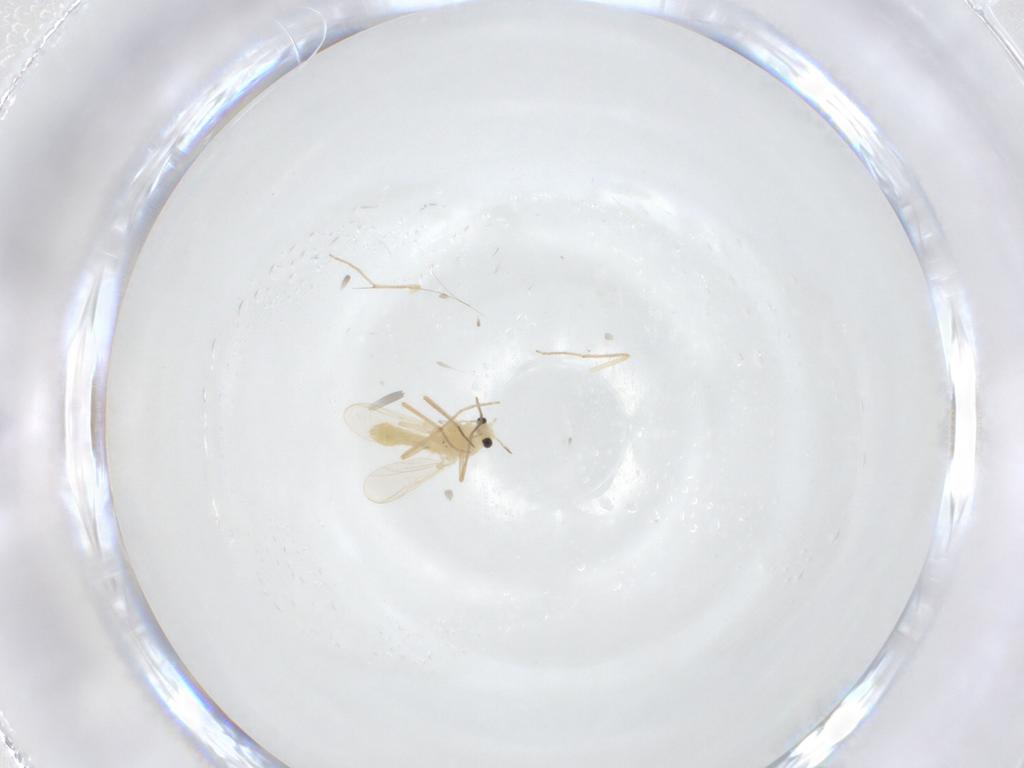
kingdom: Animalia
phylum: Arthropoda
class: Insecta
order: Diptera
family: Chironomidae
